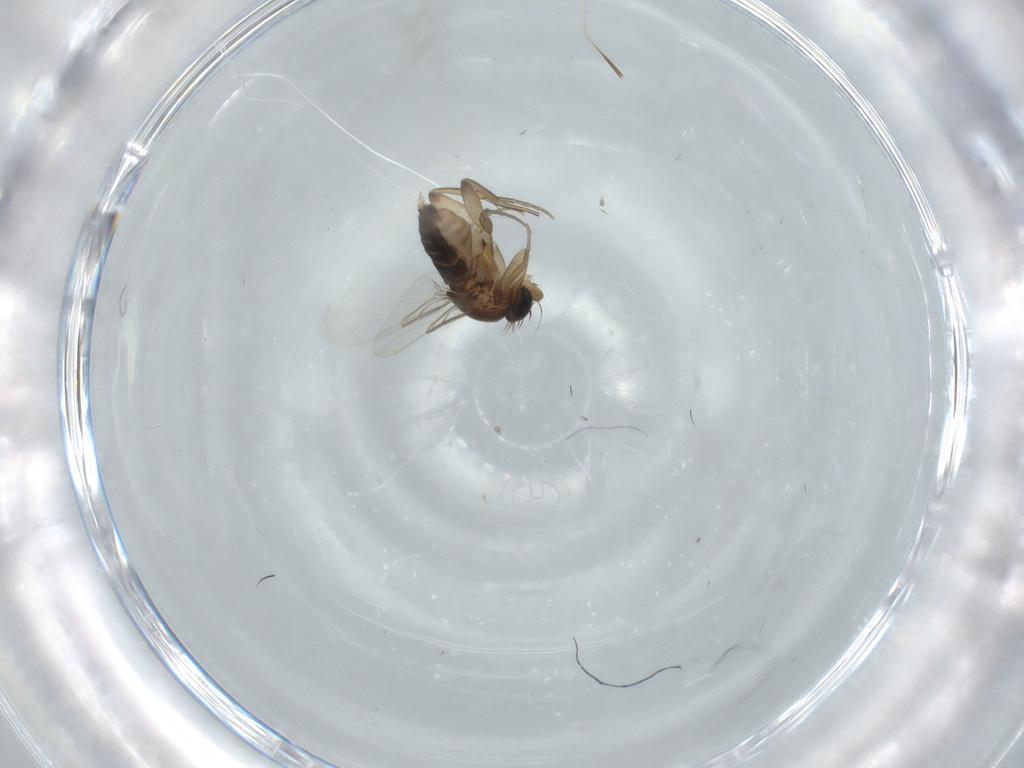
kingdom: Animalia
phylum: Arthropoda
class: Insecta
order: Diptera
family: Phoridae
